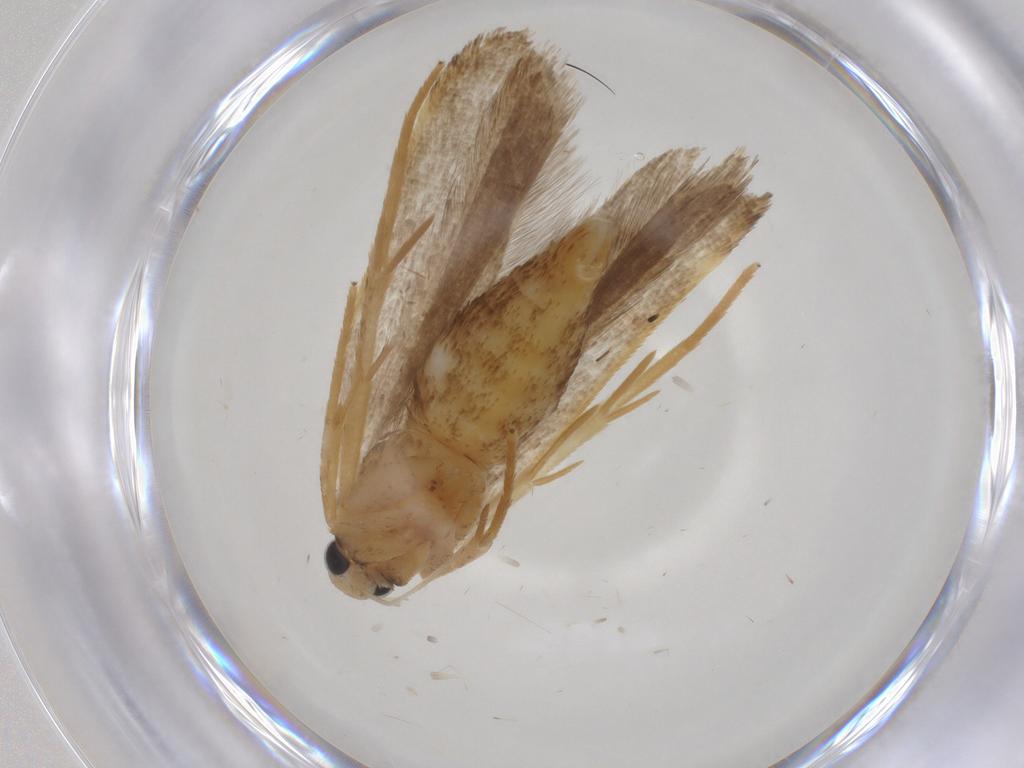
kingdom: Animalia
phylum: Arthropoda
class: Insecta
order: Lepidoptera
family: Gelechiidae
